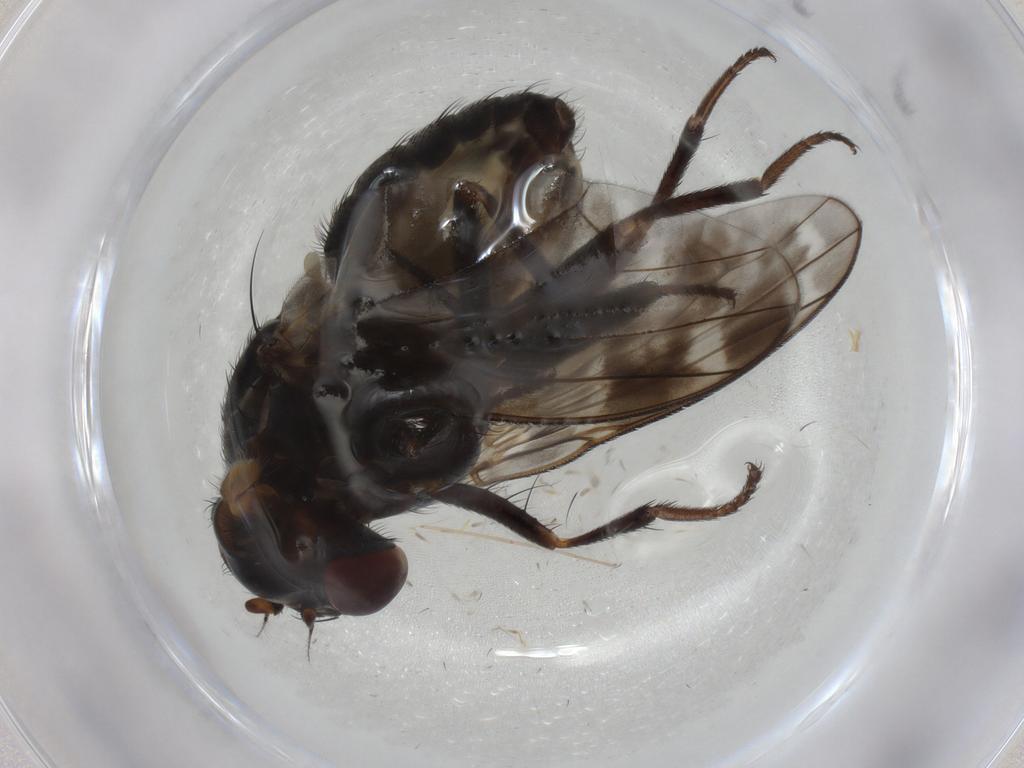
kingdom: Animalia
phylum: Arthropoda
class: Insecta
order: Diptera
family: Cecidomyiidae
